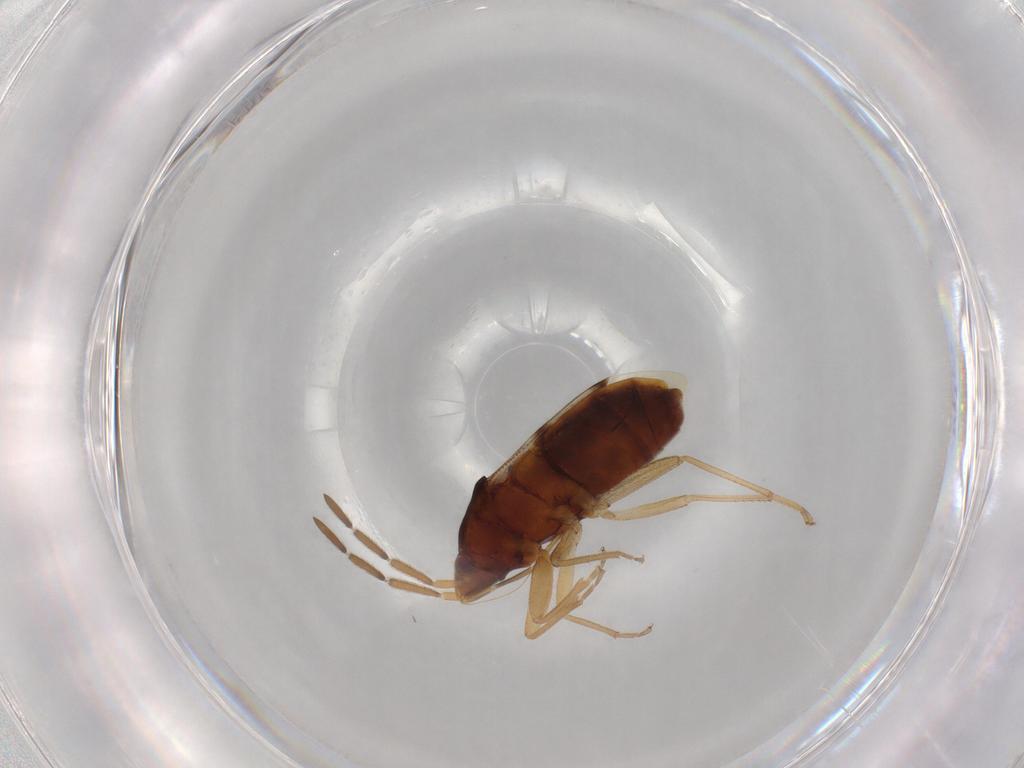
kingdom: Animalia
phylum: Arthropoda
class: Insecta
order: Hemiptera
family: Rhyparochromidae
